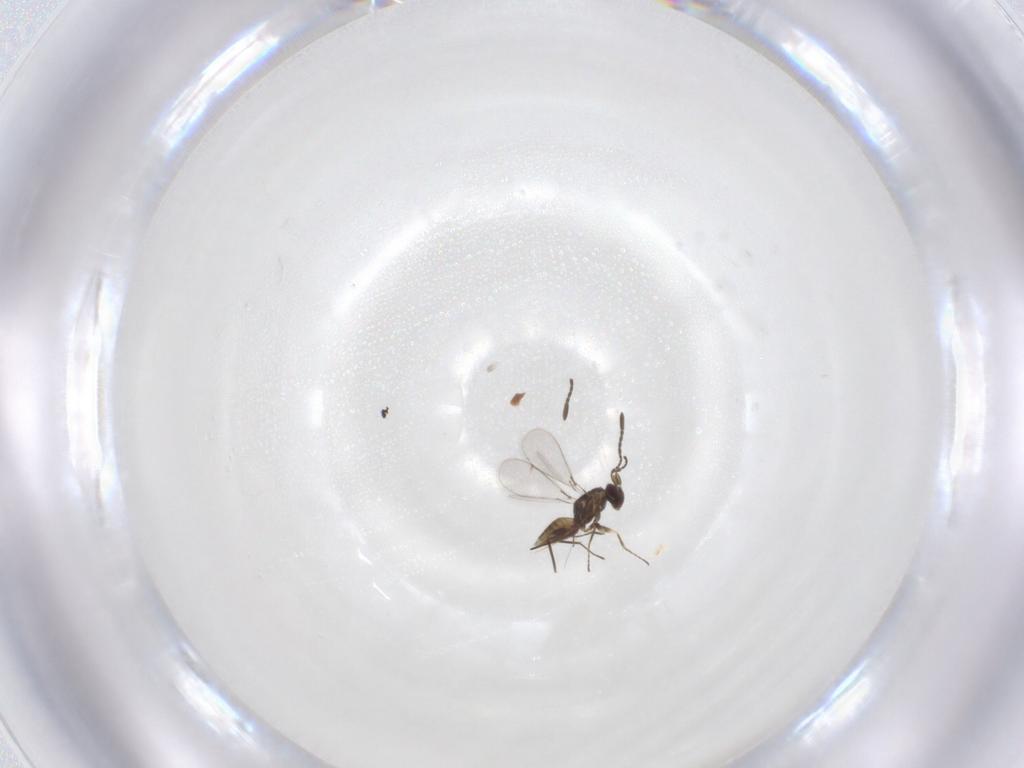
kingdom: Animalia
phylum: Arthropoda
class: Insecta
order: Hymenoptera
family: Mymaridae
